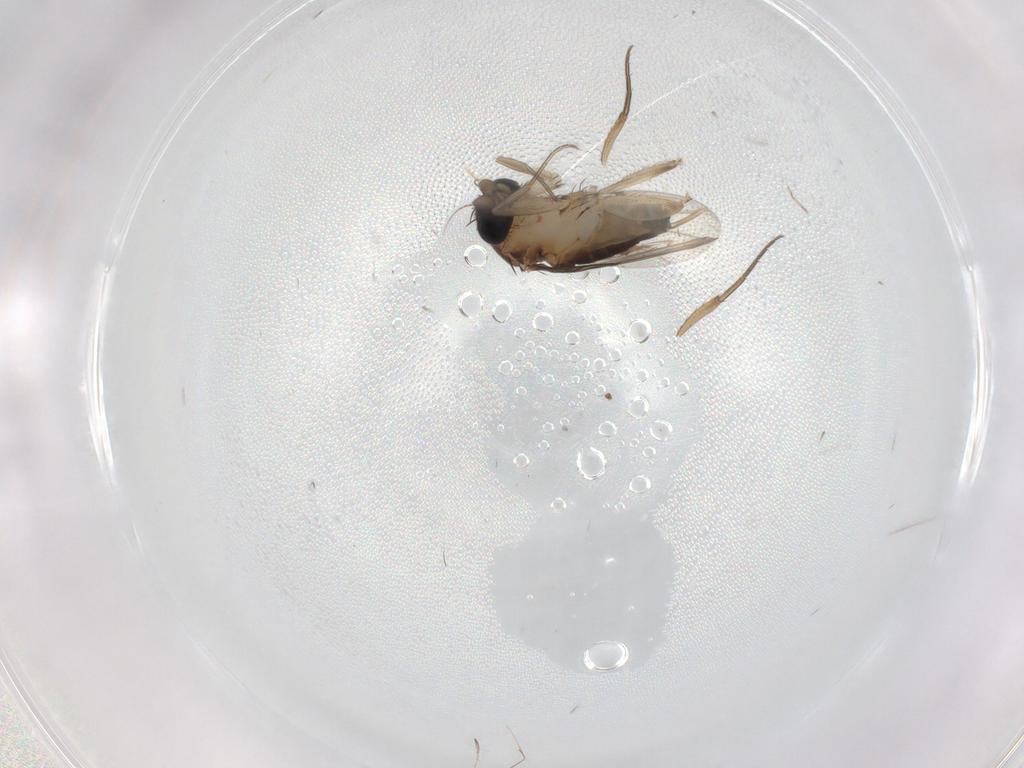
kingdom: Animalia
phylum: Arthropoda
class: Insecta
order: Diptera
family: Phoridae
